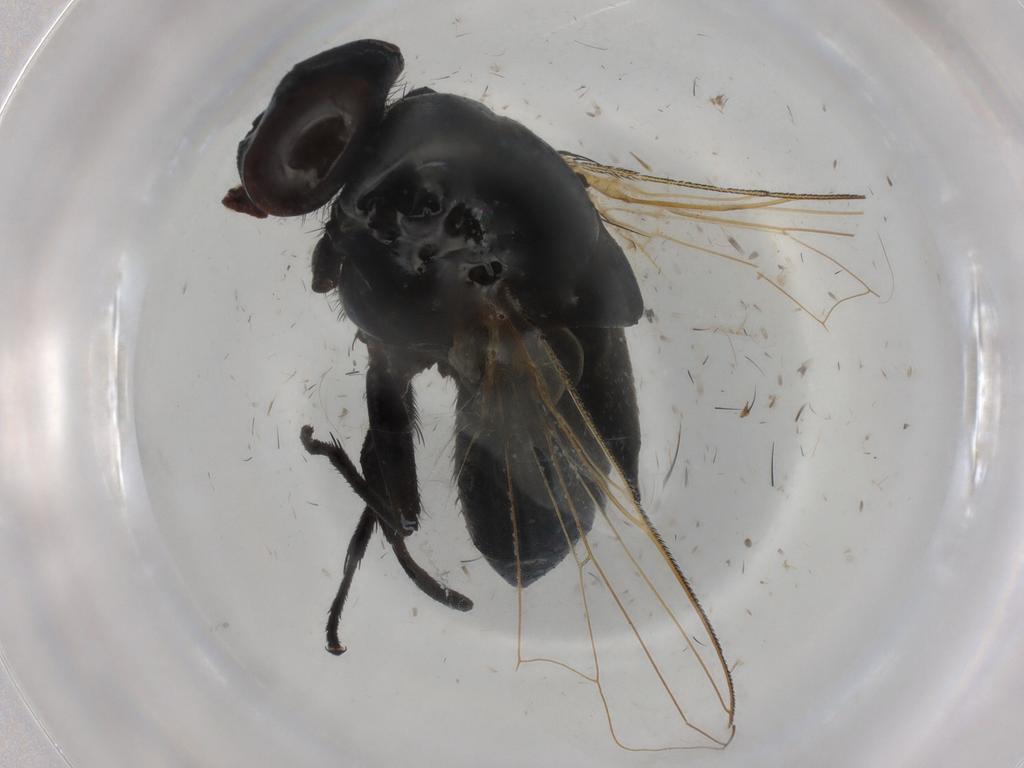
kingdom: Animalia
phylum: Arthropoda
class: Insecta
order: Diptera
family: Muscidae
